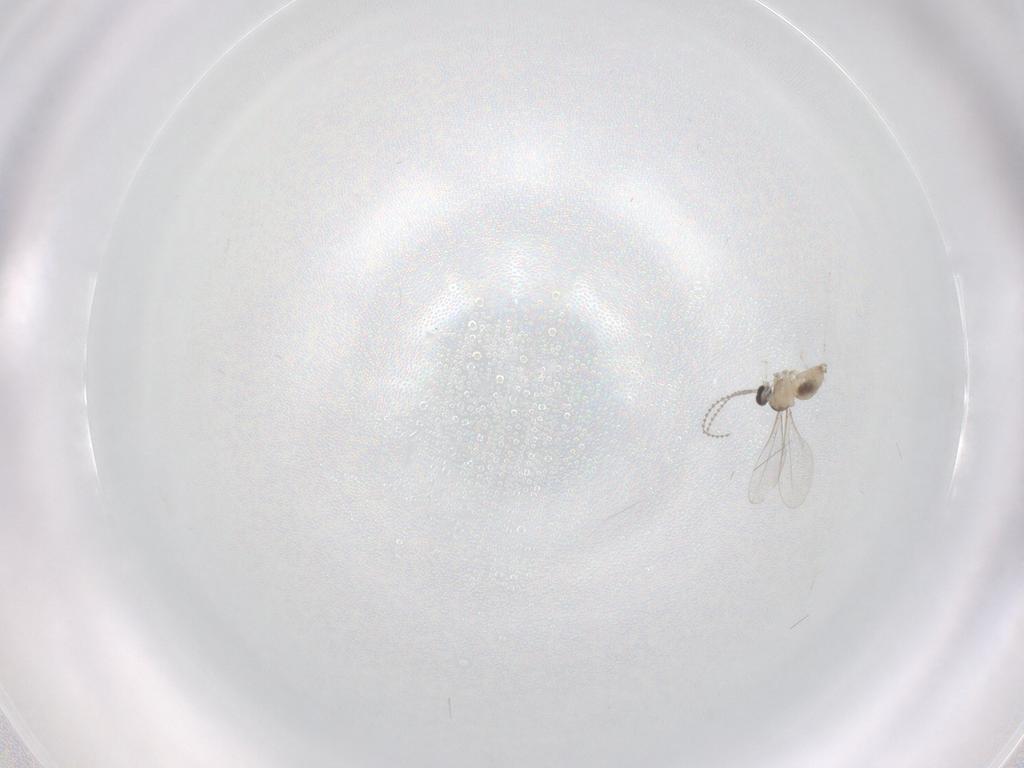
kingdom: Animalia
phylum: Arthropoda
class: Insecta
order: Diptera
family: Cecidomyiidae
